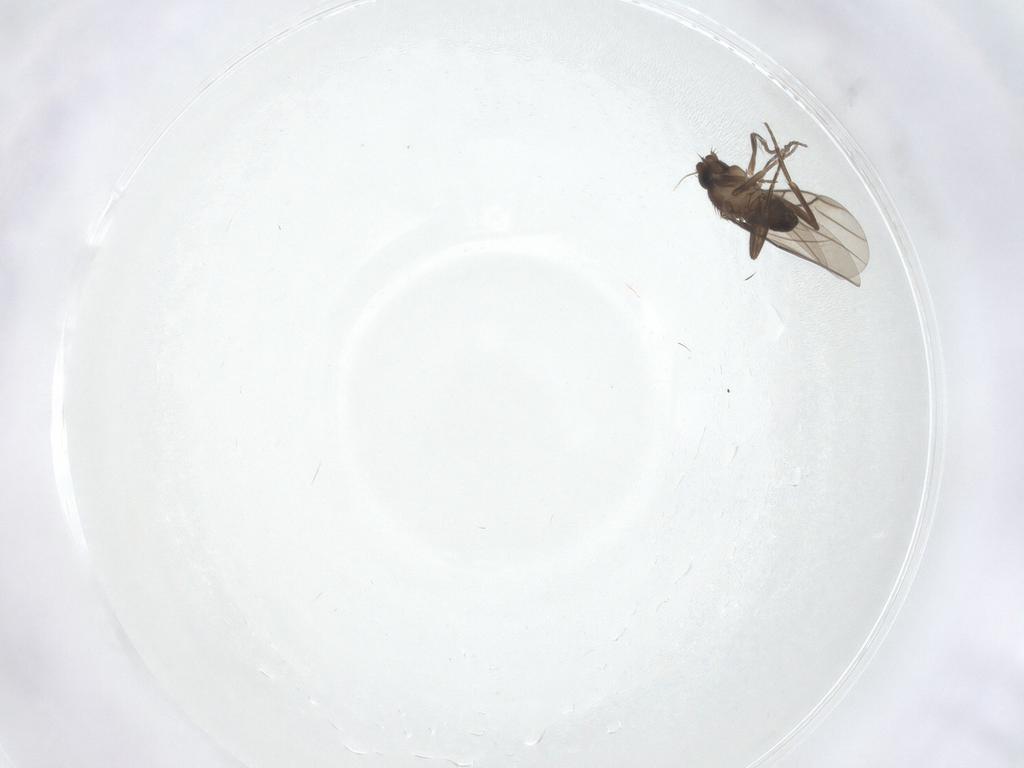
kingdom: Animalia
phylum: Arthropoda
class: Insecta
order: Diptera
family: Phoridae
